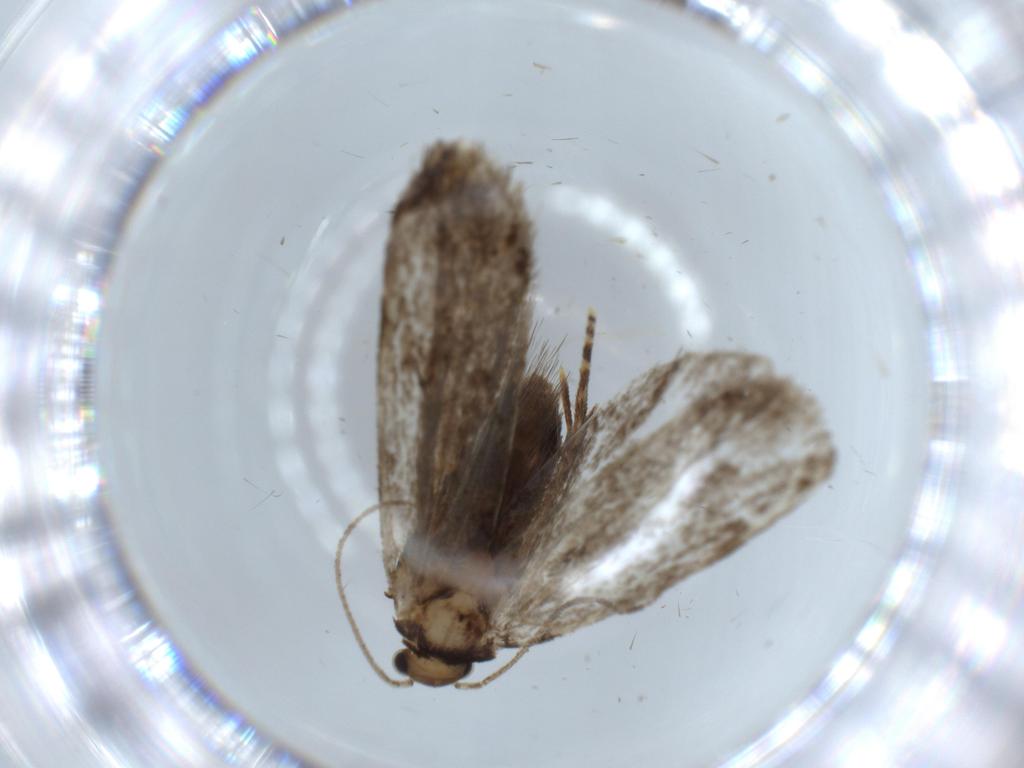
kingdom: Animalia
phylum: Arthropoda
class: Insecta
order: Lepidoptera
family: Tineidae
